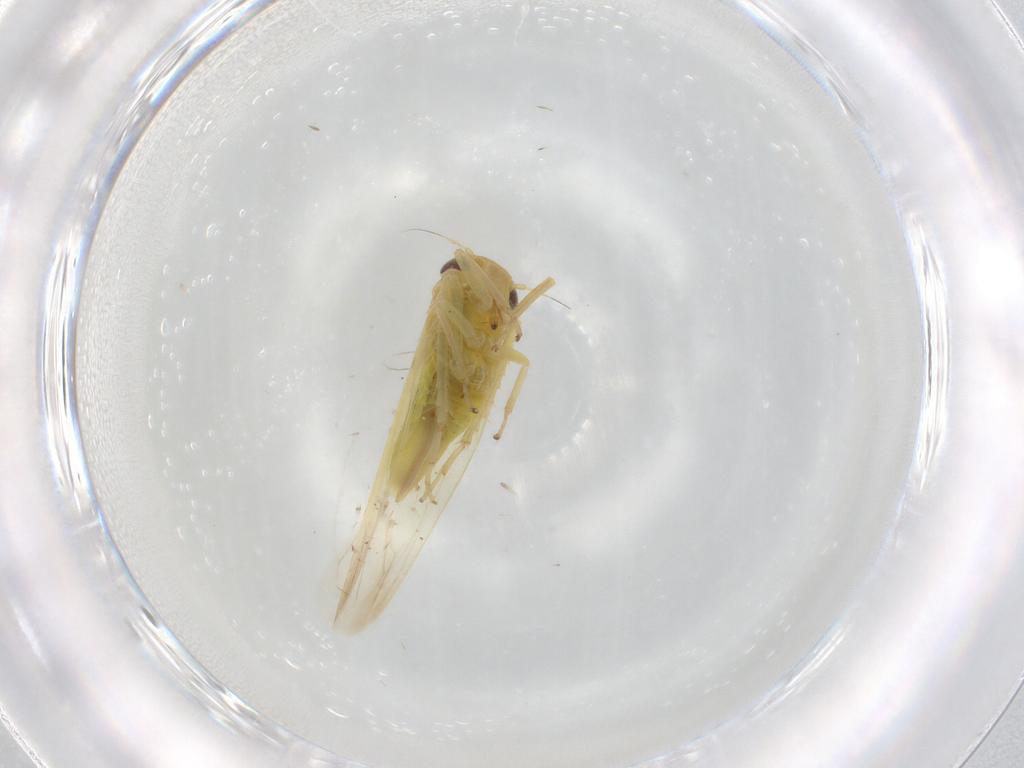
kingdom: Animalia
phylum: Arthropoda
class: Insecta
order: Hemiptera
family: Cicadellidae
